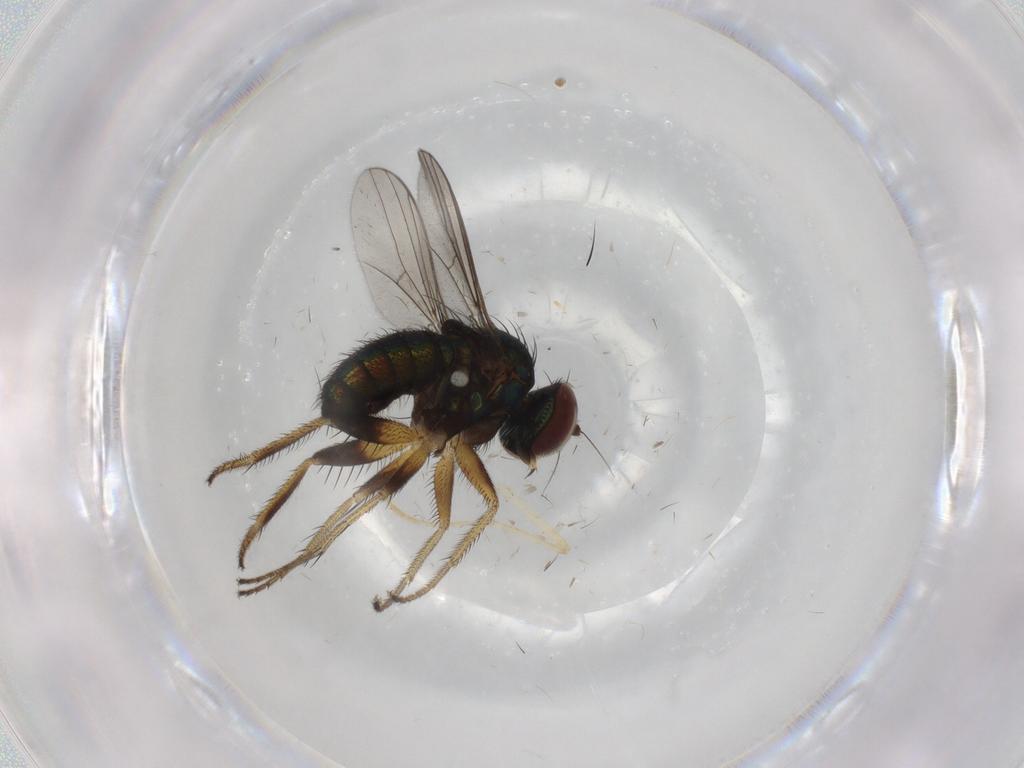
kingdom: Animalia
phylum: Arthropoda
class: Insecta
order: Diptera
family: Dolichopodidae
